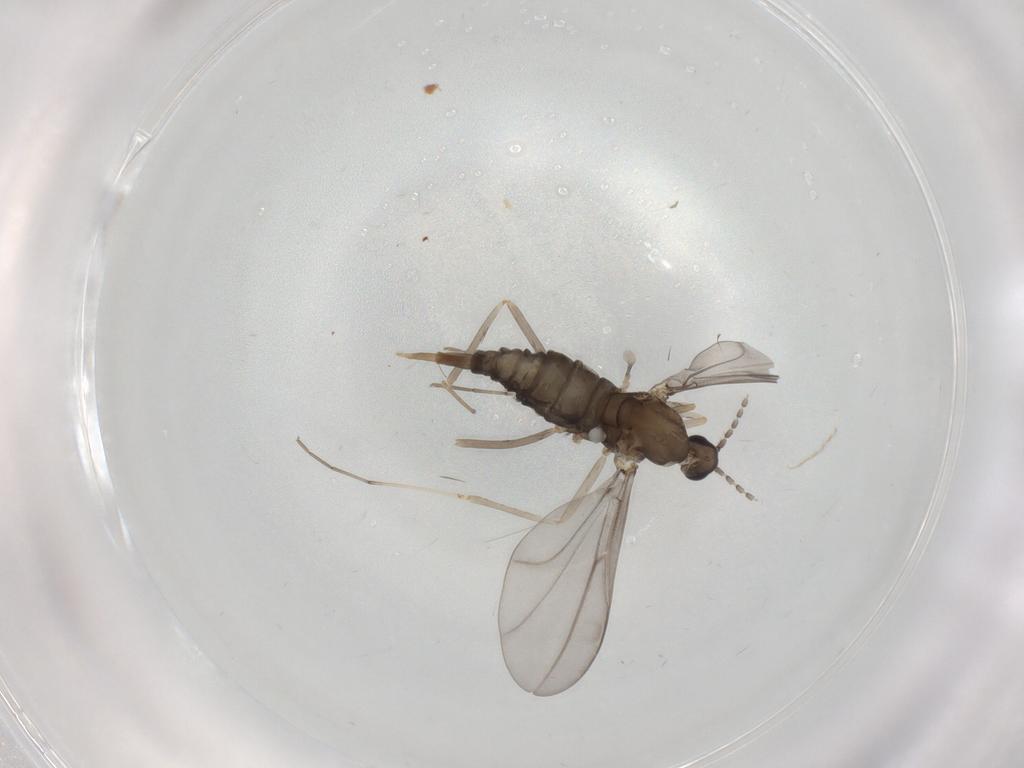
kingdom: Animalia
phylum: Arthropoda
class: Insecta
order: Diptera
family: Cecidomyiidae
